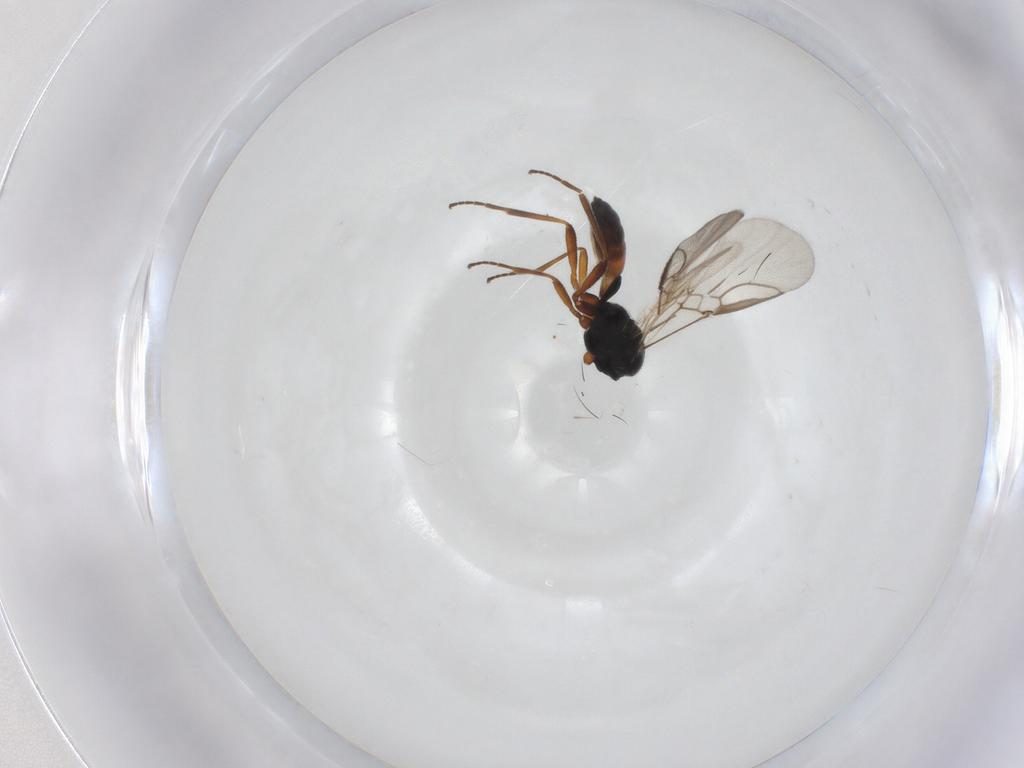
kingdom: Animalia
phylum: Arthropoda
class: Insecta
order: Hymenoptera
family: Braconidae
